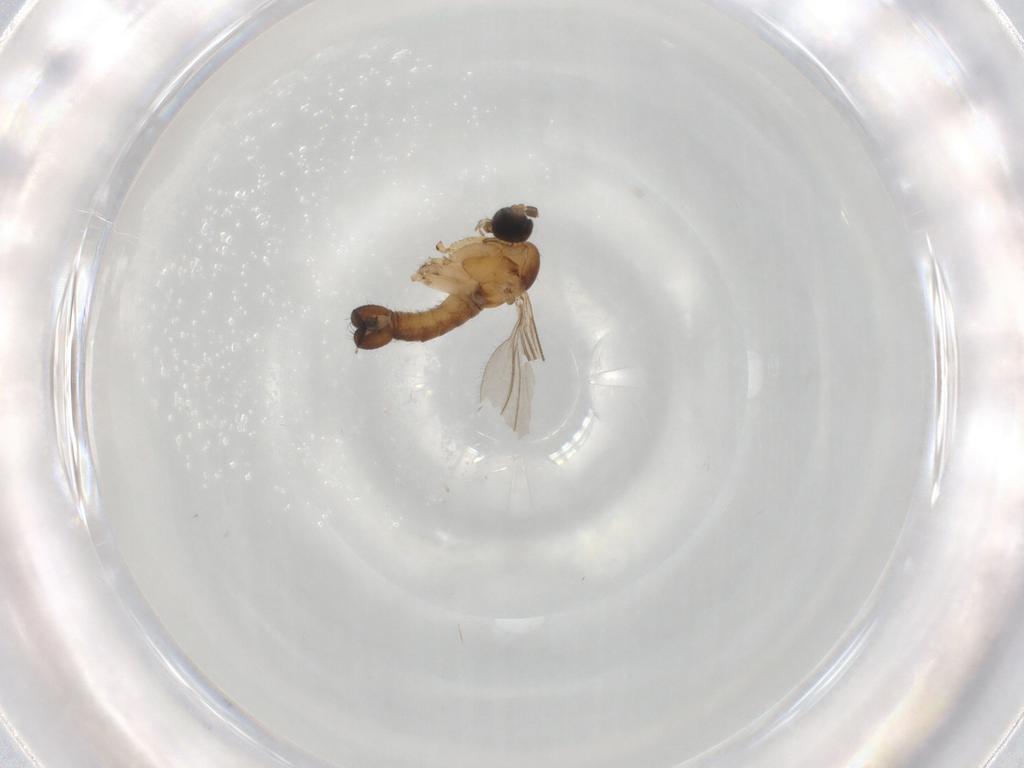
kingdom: Animalia
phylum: Arthropoda
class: Insecta
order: Diptera
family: Sciaridae
